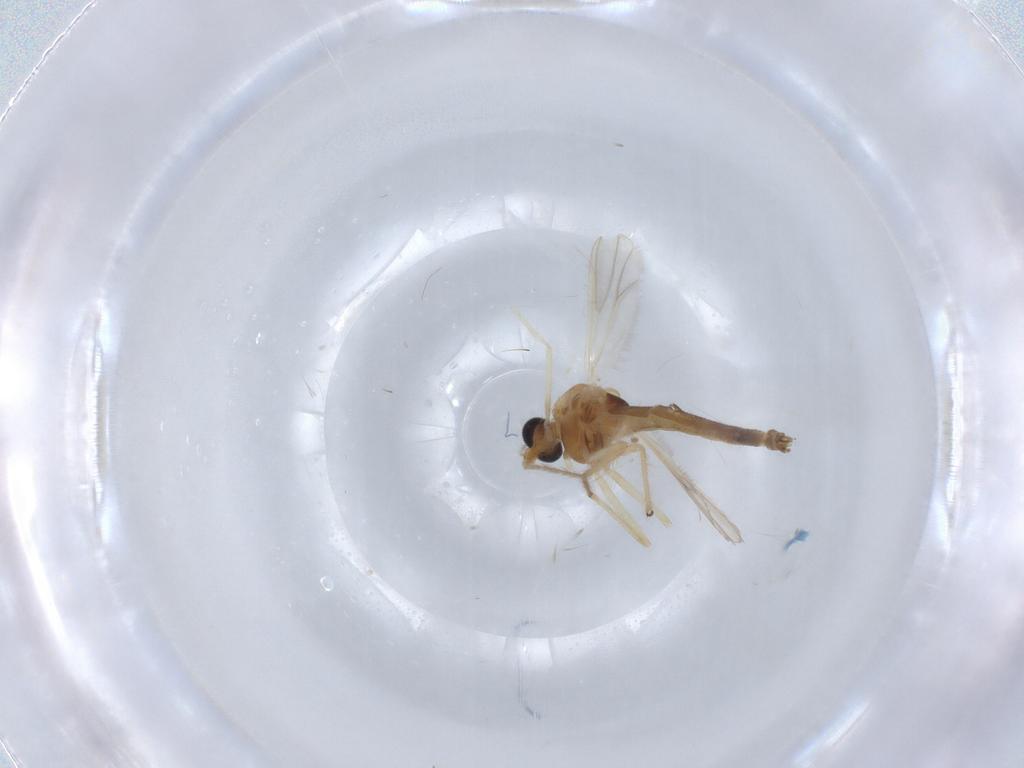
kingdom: Animalia
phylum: Arthropoda
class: Insecta
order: Diptera
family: Chironomidae
